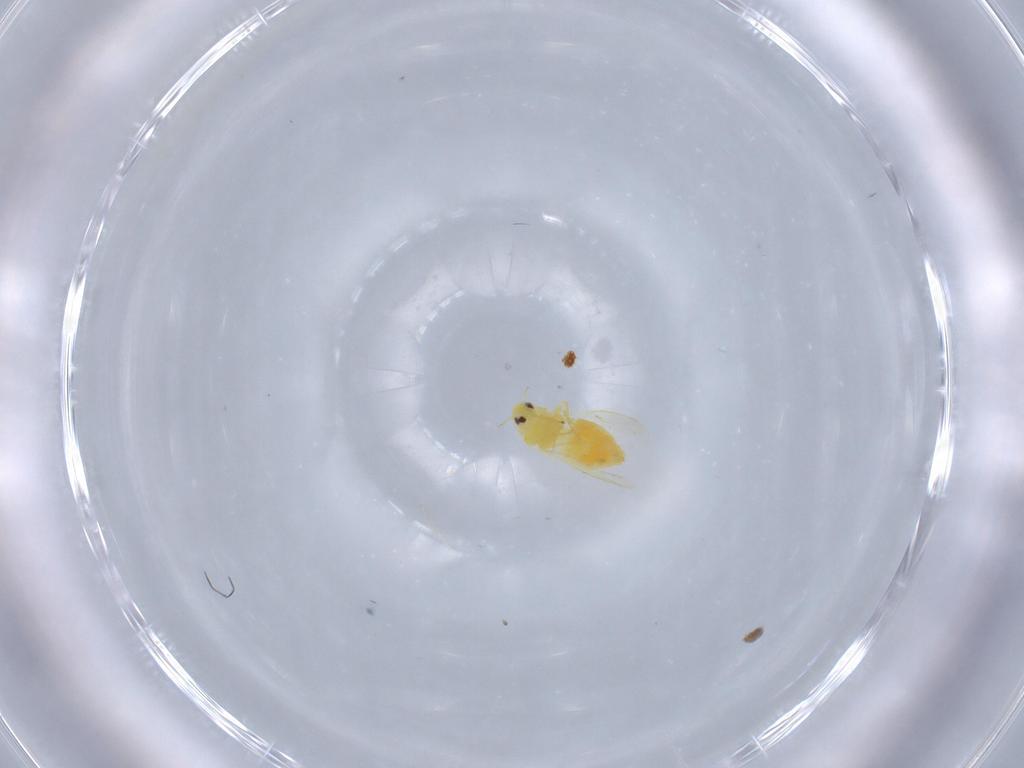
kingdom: Animalia
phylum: Arthropoda
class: Insecta
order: Hemiptera
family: Aleyrodidae
